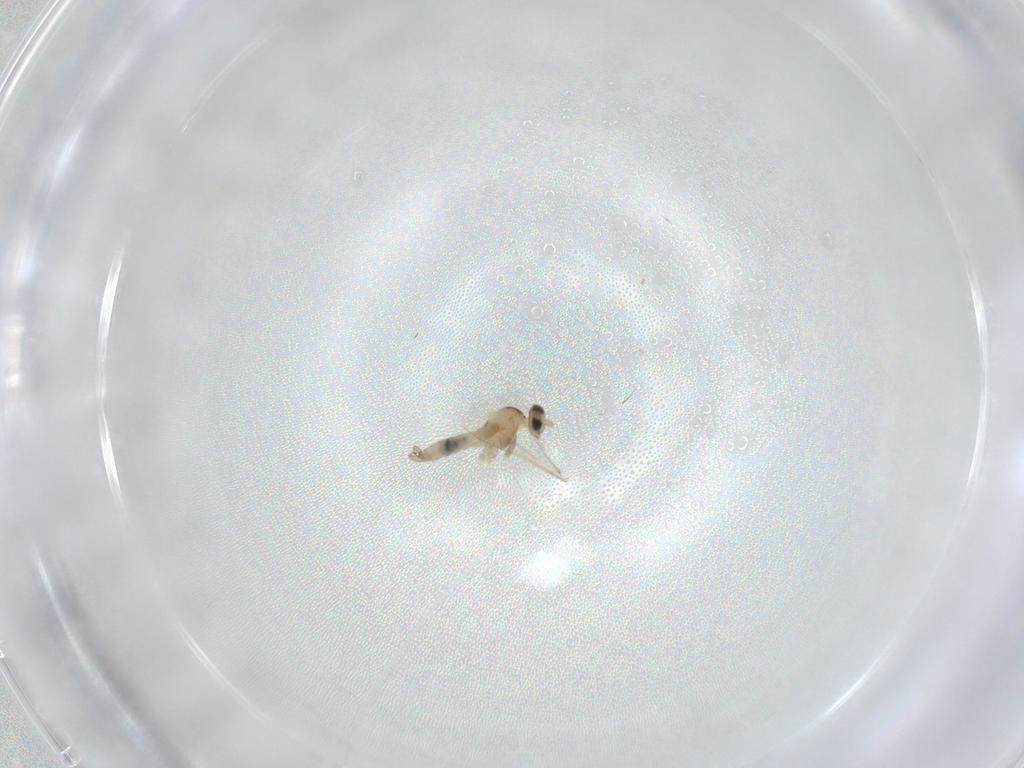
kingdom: Animalia
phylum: Arthropoda
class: Insecta
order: Diptera
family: Cecidomyiidae
